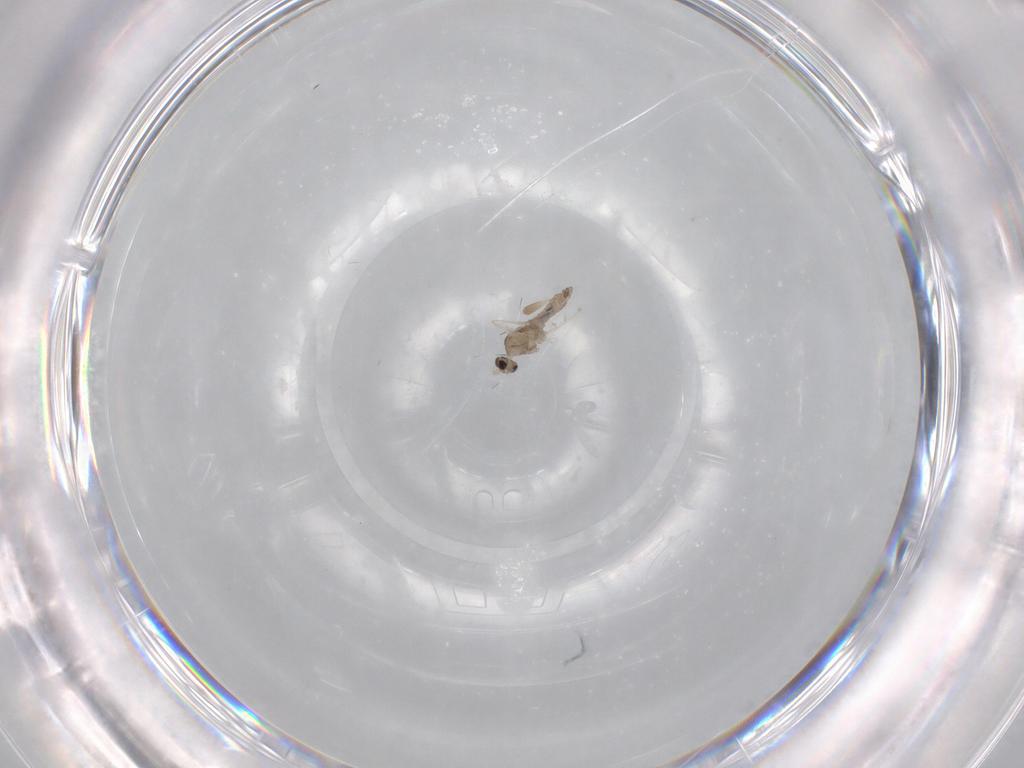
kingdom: Animalia
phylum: Arthropoda
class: Insecta
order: Diptera
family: Cecidomyiidae
